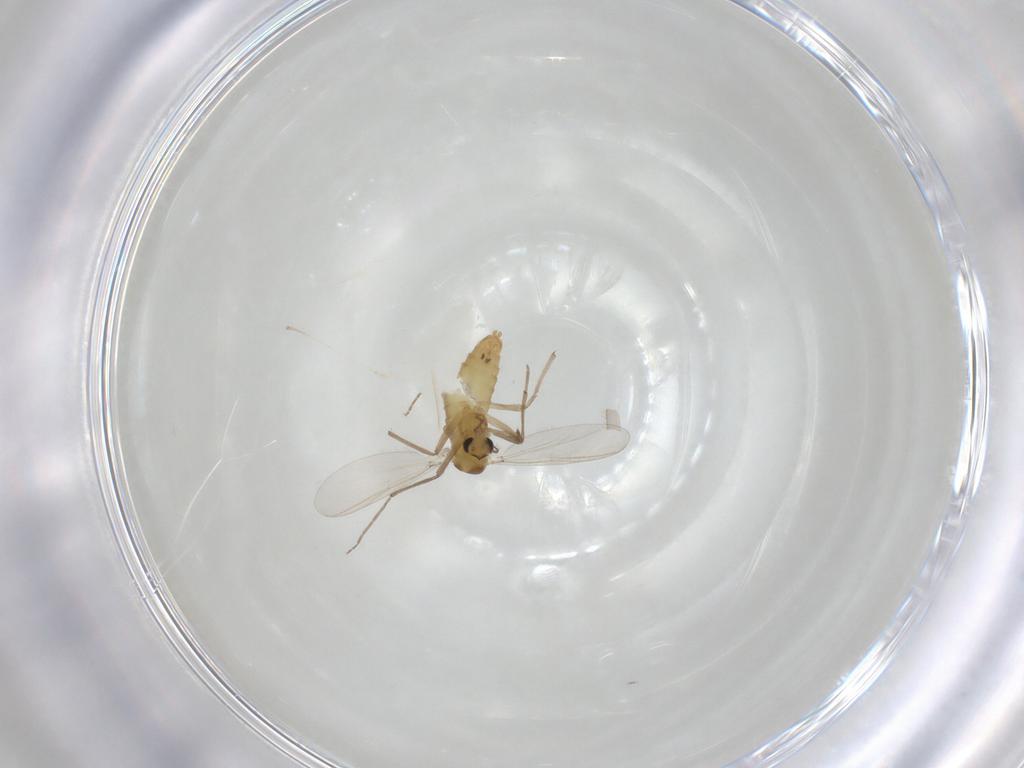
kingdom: Animalia
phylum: Arthropoda
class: Insecta
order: Diptera
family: Chironomidae
